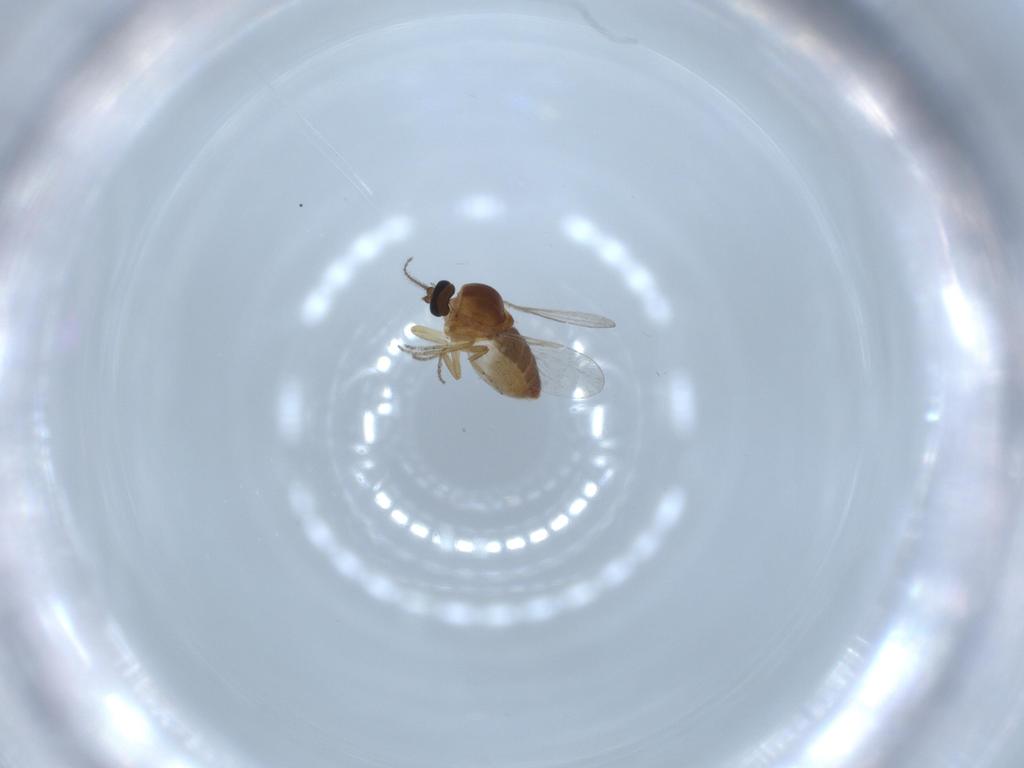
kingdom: Animalia
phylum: Arthropoda
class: Insecta
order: Diptera
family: Ceratopogonidae
